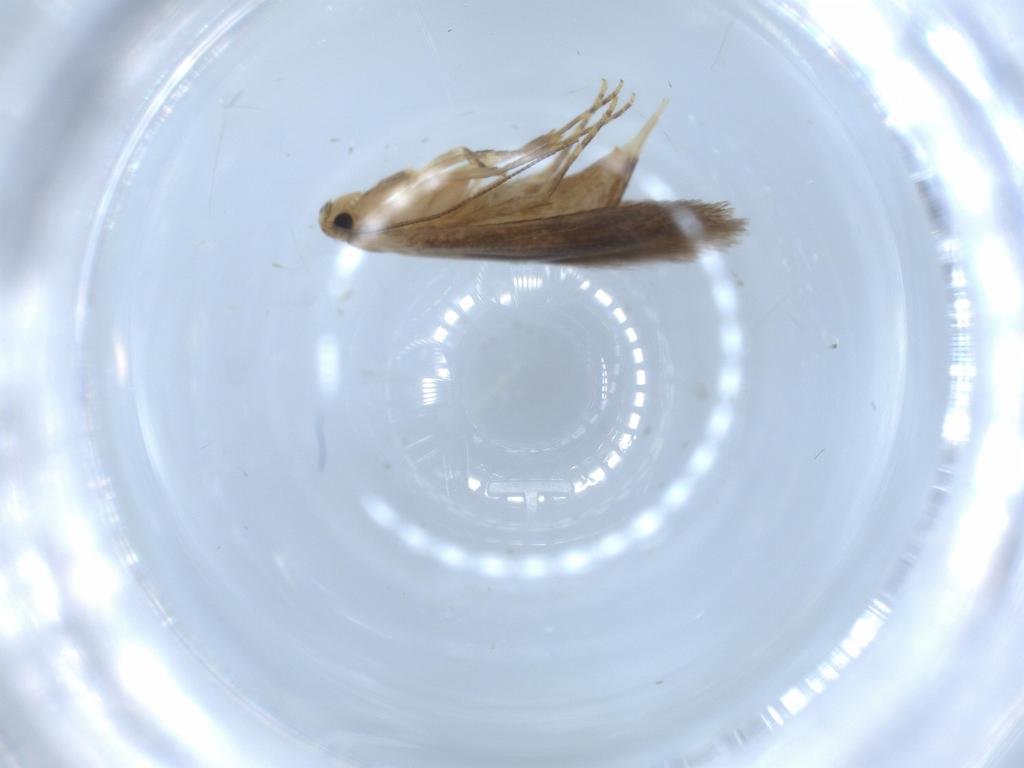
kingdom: Animalia
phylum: Arthropoda
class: Insecta
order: Lepidoptera
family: Tineidae
